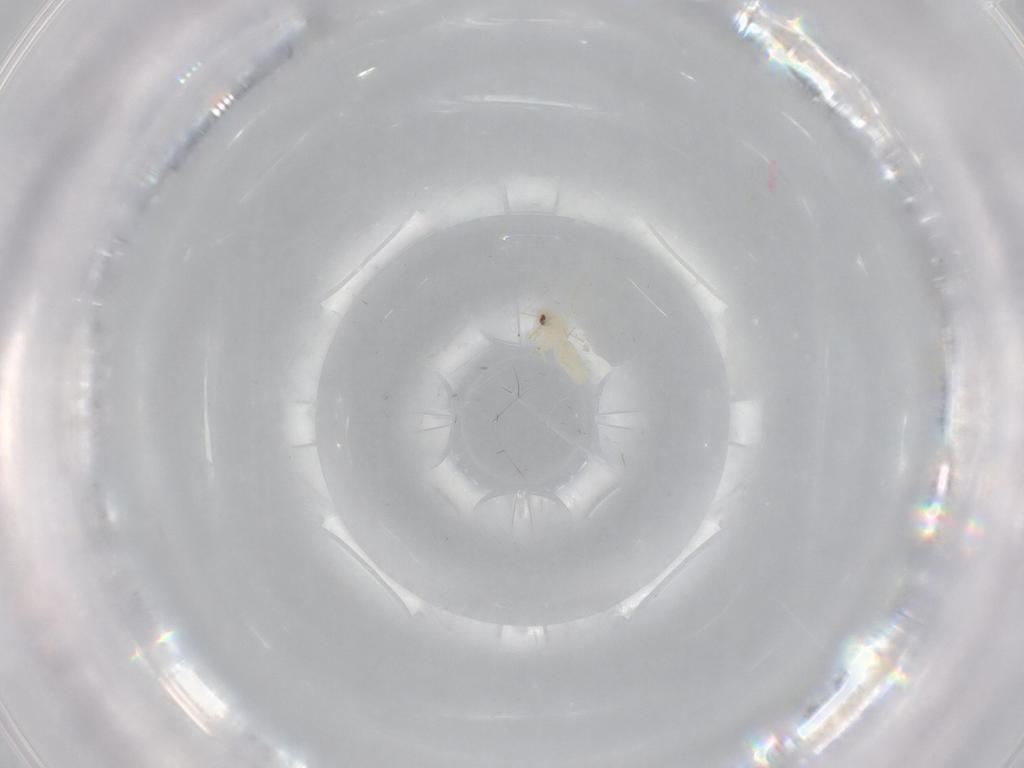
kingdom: Animalia
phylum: Arthropoda
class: Insecta
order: Hemiptera
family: Aleyrodidae
